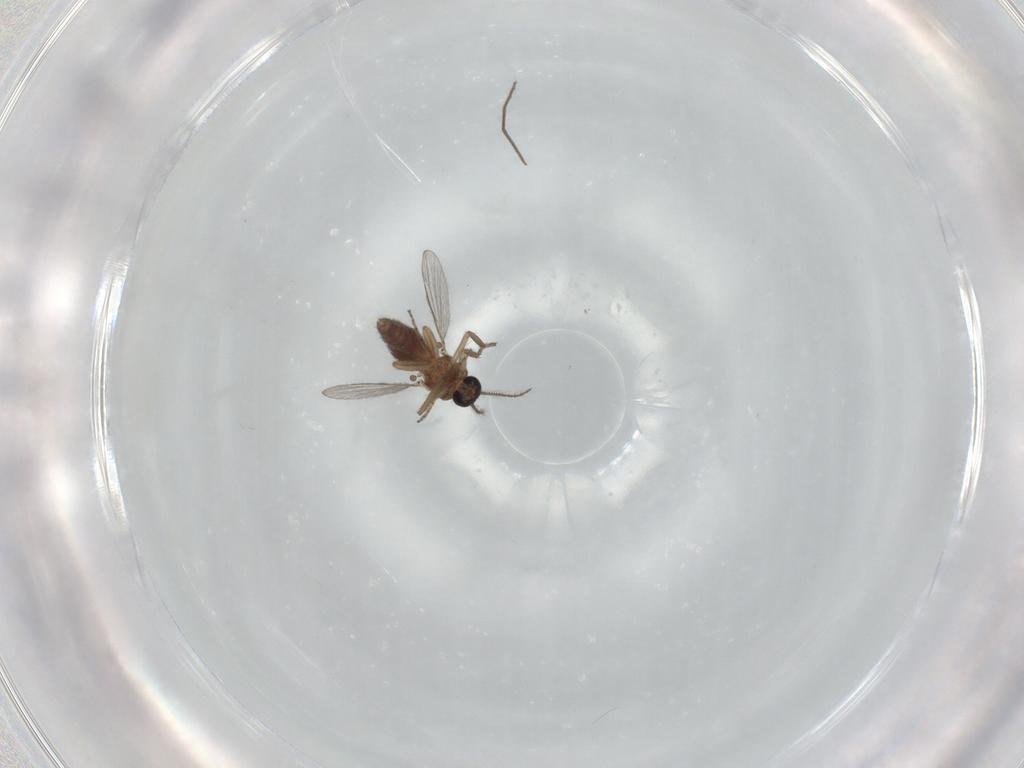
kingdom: Animalia
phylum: Arthropoda
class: Insecta
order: Diptera
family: Chironomidae
